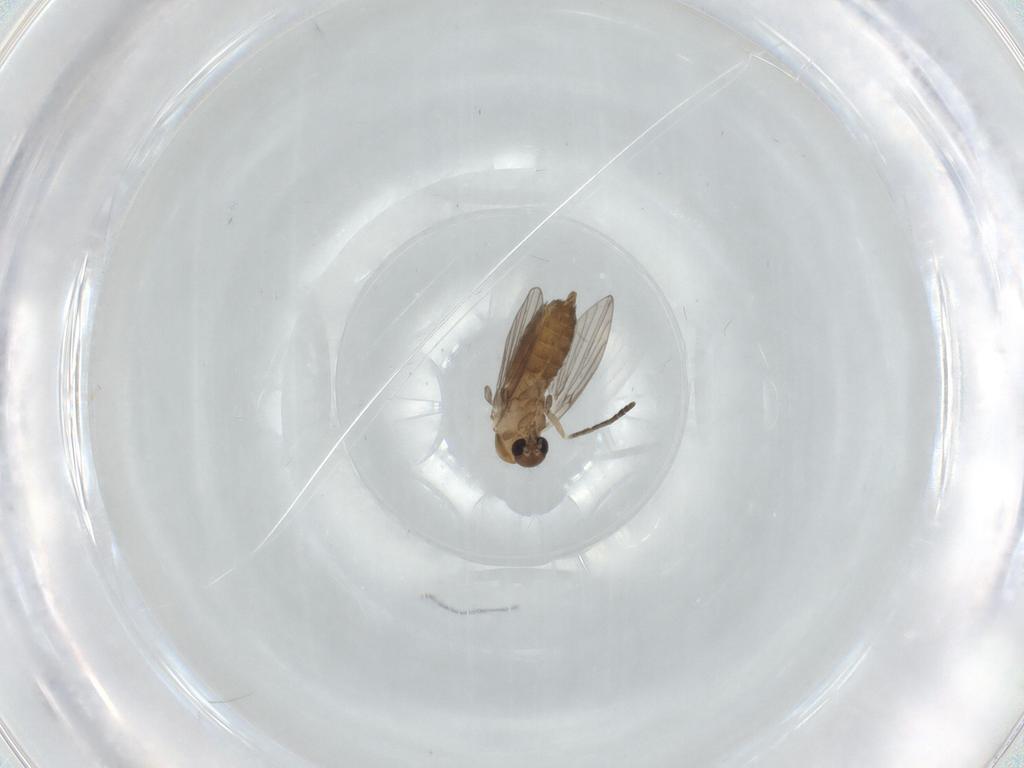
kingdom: Animalia
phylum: Arthropoda
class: Insecta
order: Diptera
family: Psychodidae
